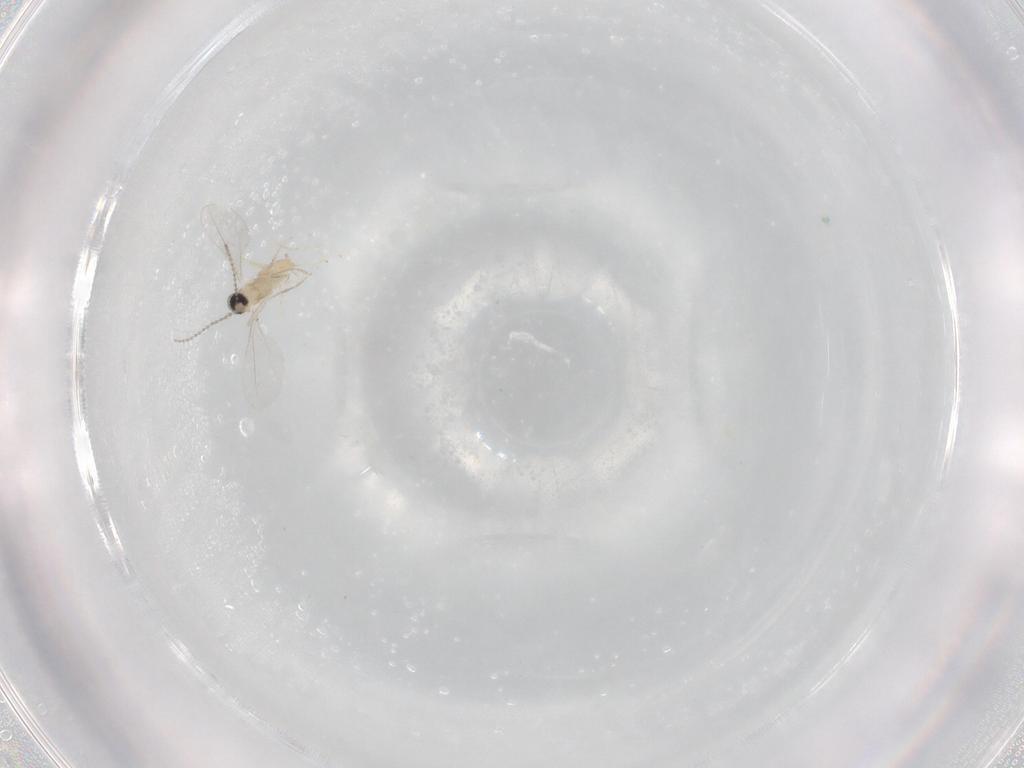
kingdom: Animalia
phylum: Arthropoda
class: Insecta
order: Diptera
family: Sphaeroceridae
